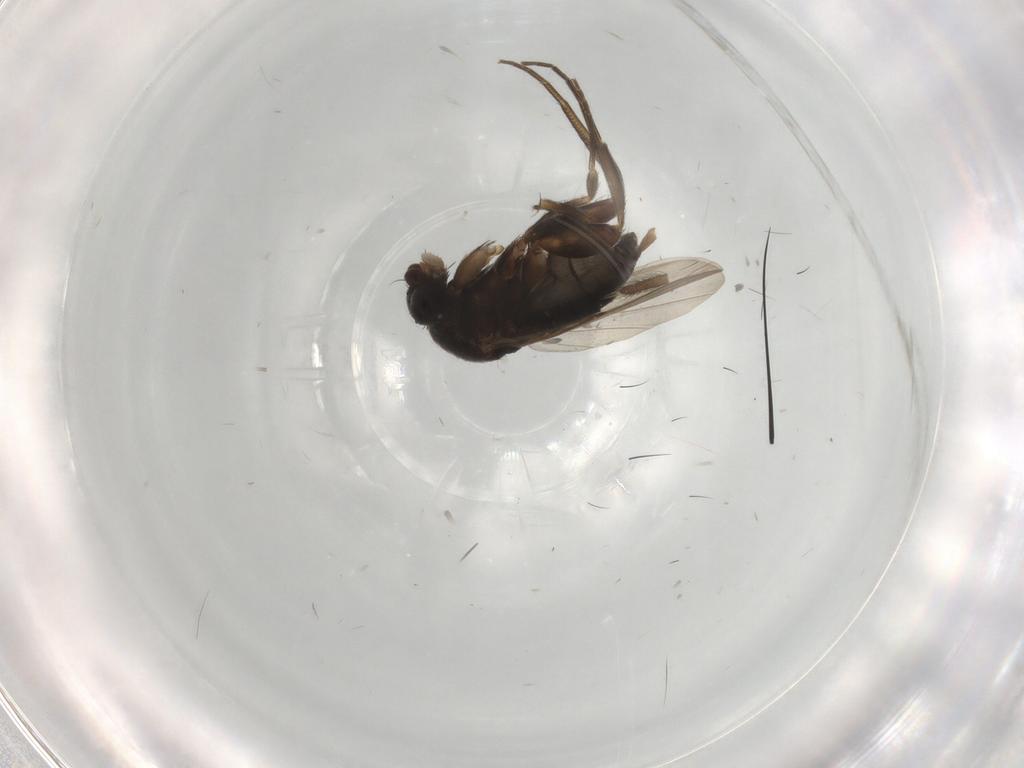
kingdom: Animalia
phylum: Arthropoda
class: Insecta
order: Diptera
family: Phoridae
